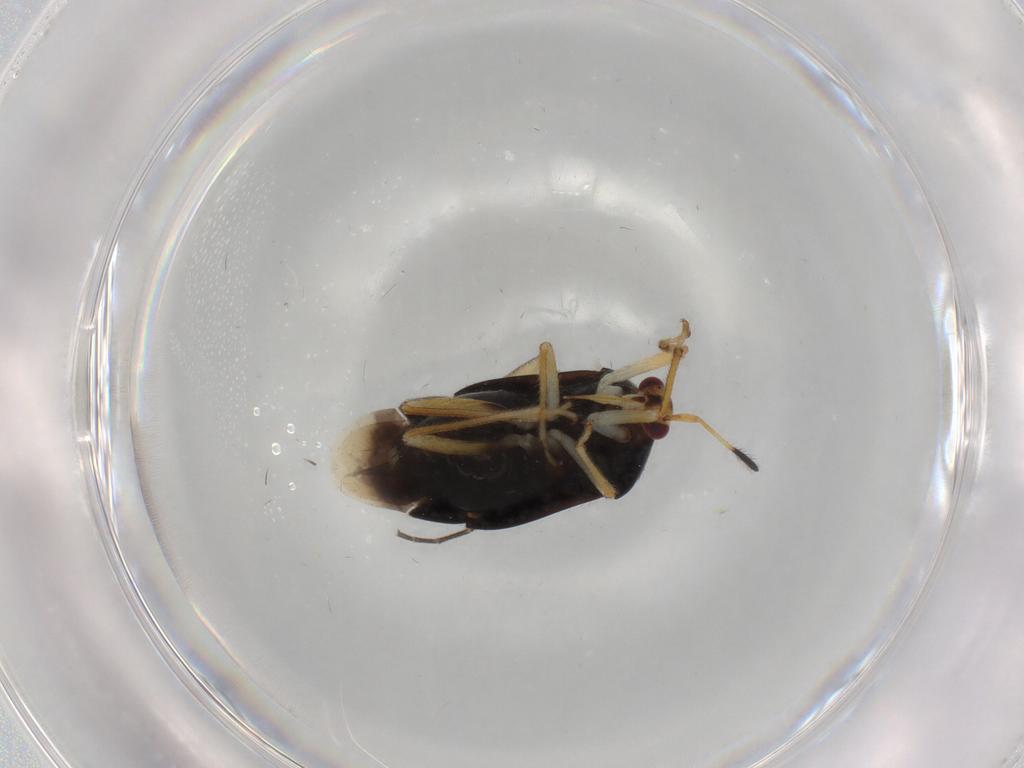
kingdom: Animalia
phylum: Arthropoda
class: Insecta
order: Hemiptera
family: Miridae
